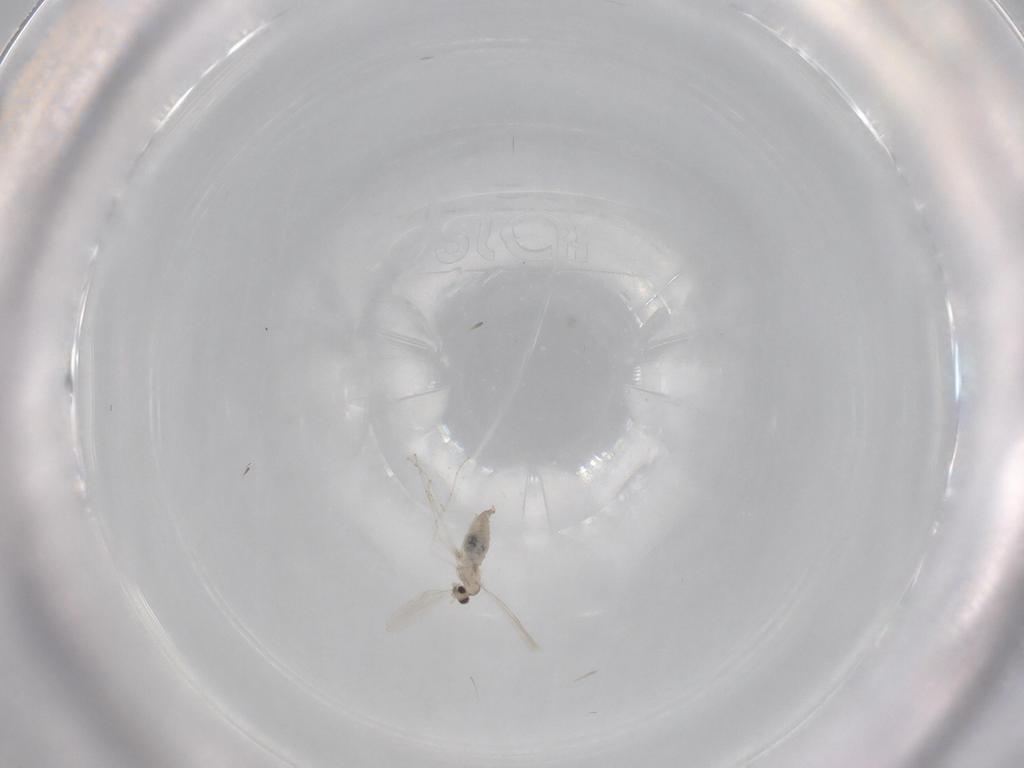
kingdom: Animalia
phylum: Arthropoda
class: Insecta
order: Diptera
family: Cecidomyiidae
